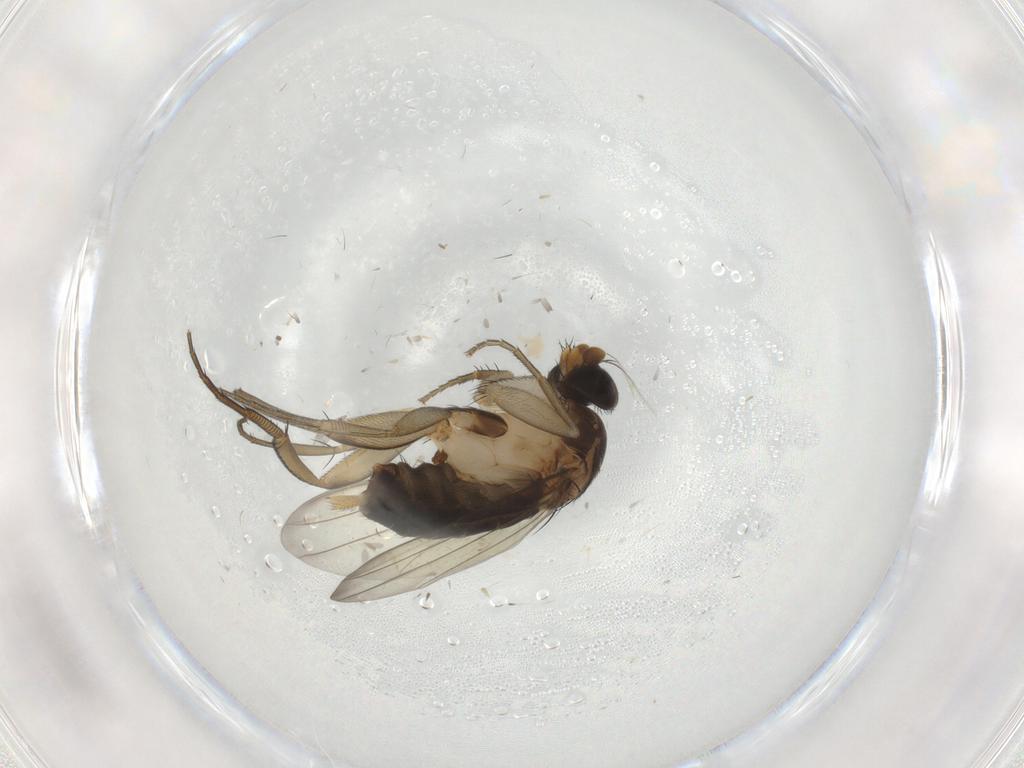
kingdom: Animalia
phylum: Arthropoda
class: Insecta
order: Diptera
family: Phoridae
